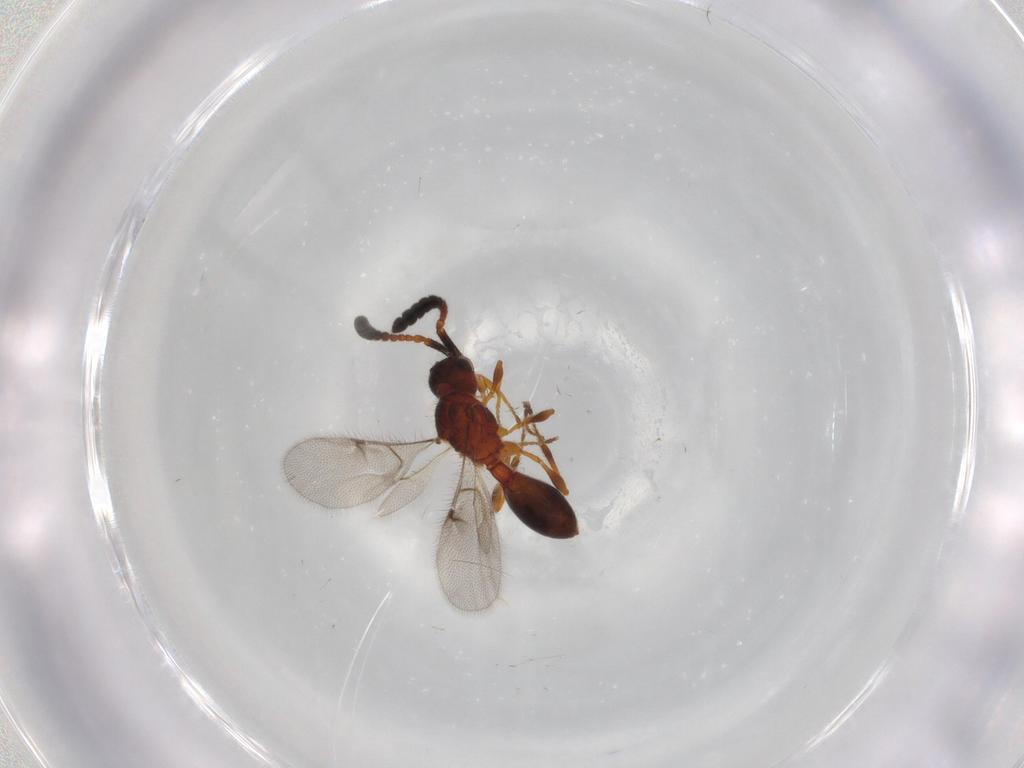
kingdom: Animalia
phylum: Arthropoda
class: Insecta
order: Hymenoptera
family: Diapriidae
